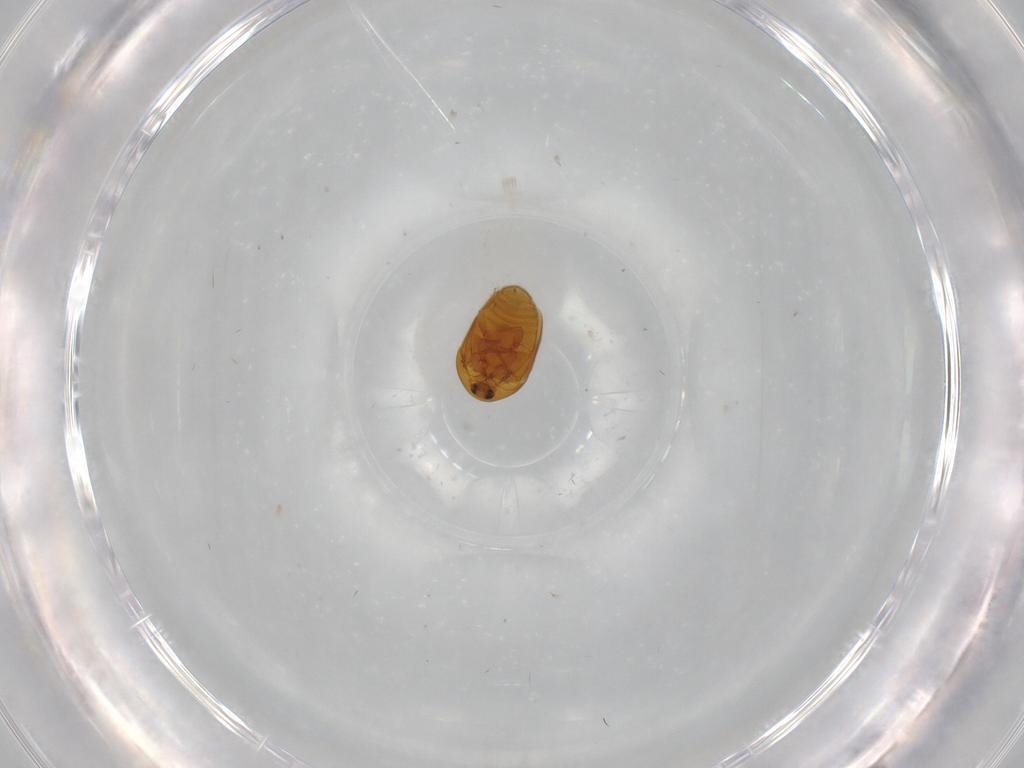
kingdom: Animalia
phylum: Arthropoda
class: Insecta
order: Coleoptera
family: Corylophidae
